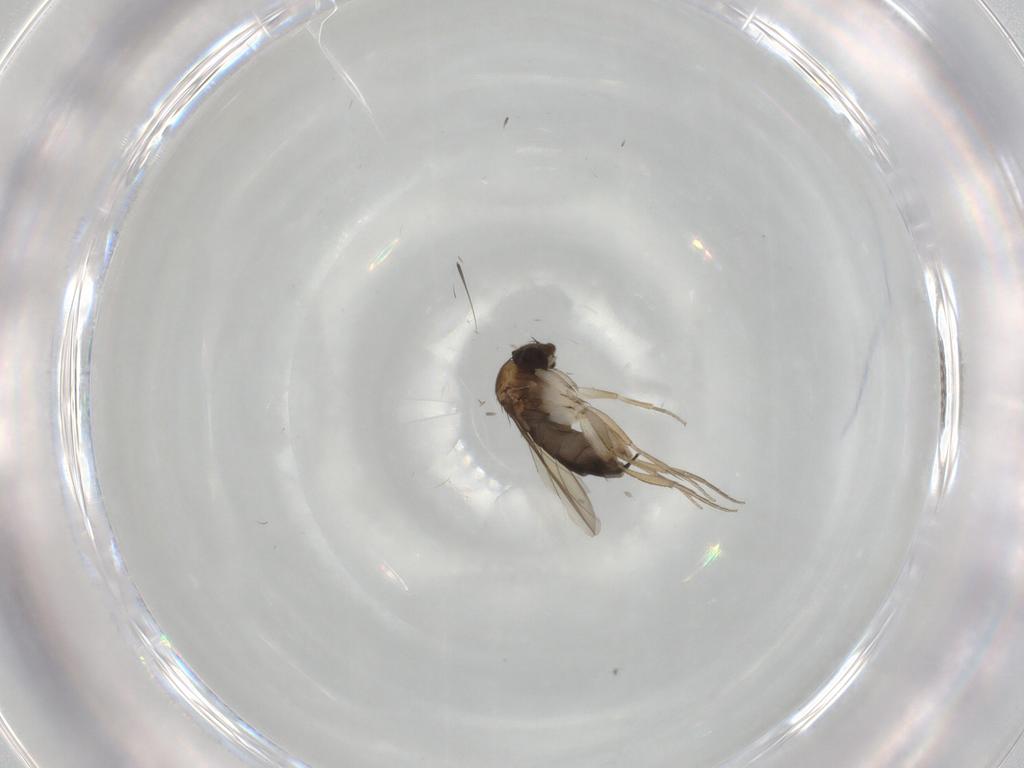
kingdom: Animalia
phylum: Arthropoda
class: Insecta
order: Diptera
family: Phoridae
